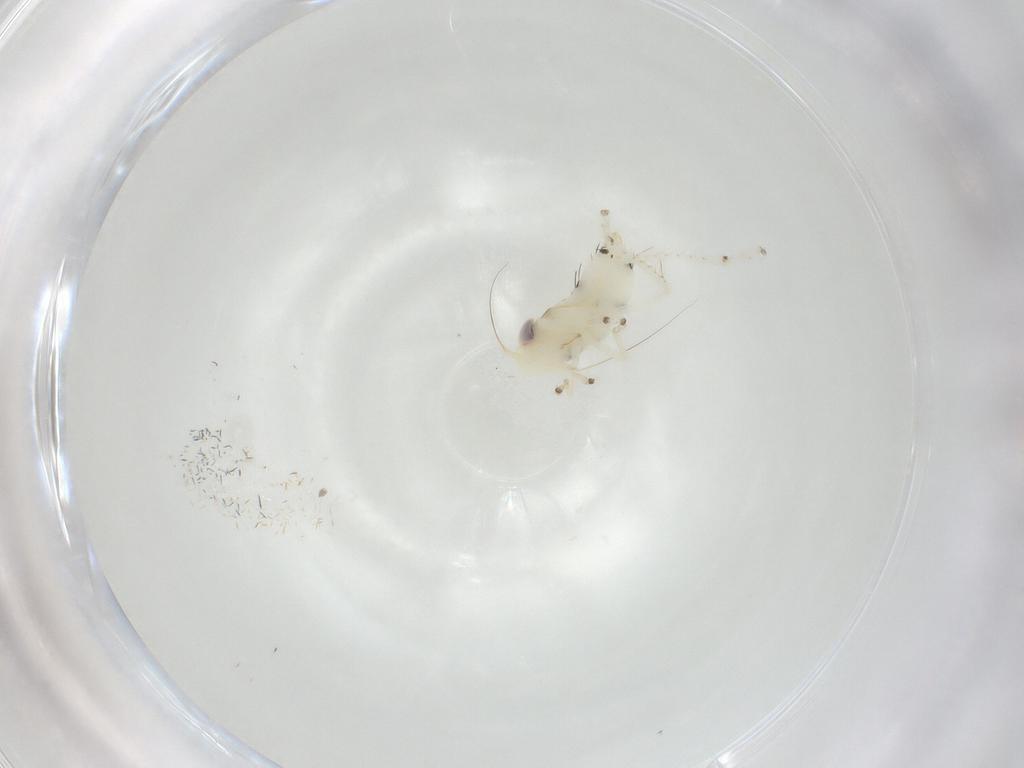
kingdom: Animalia
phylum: Arthropoda
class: Insecta
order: Hemiptera
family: Cicadellidae
